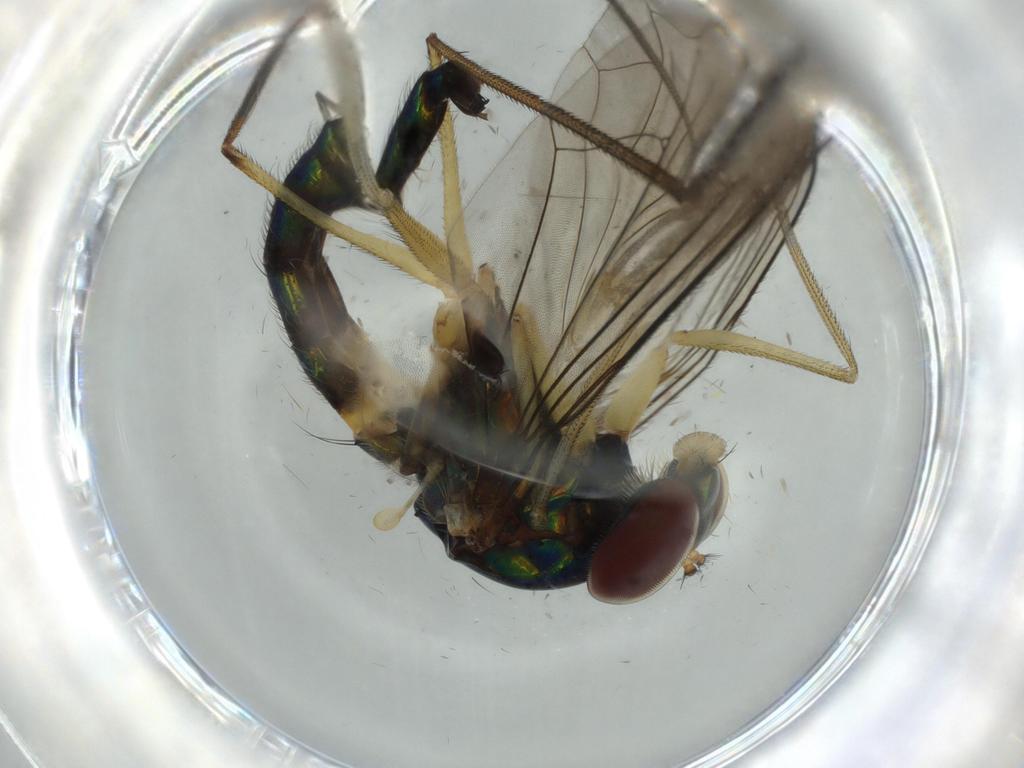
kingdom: Animalia
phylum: Arthropoda
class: Insecta
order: Diptera
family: Dolichopodidae
